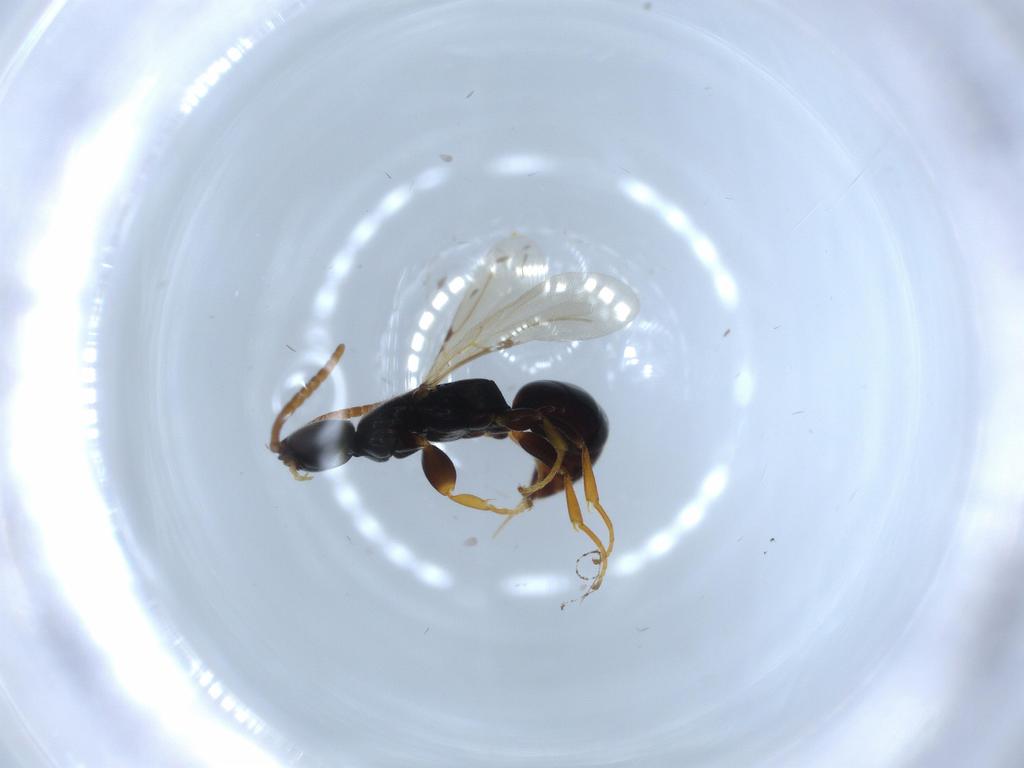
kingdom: Animalia
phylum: Arthropoda
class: Insecta
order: Hymenoptera
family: Bethylidae
